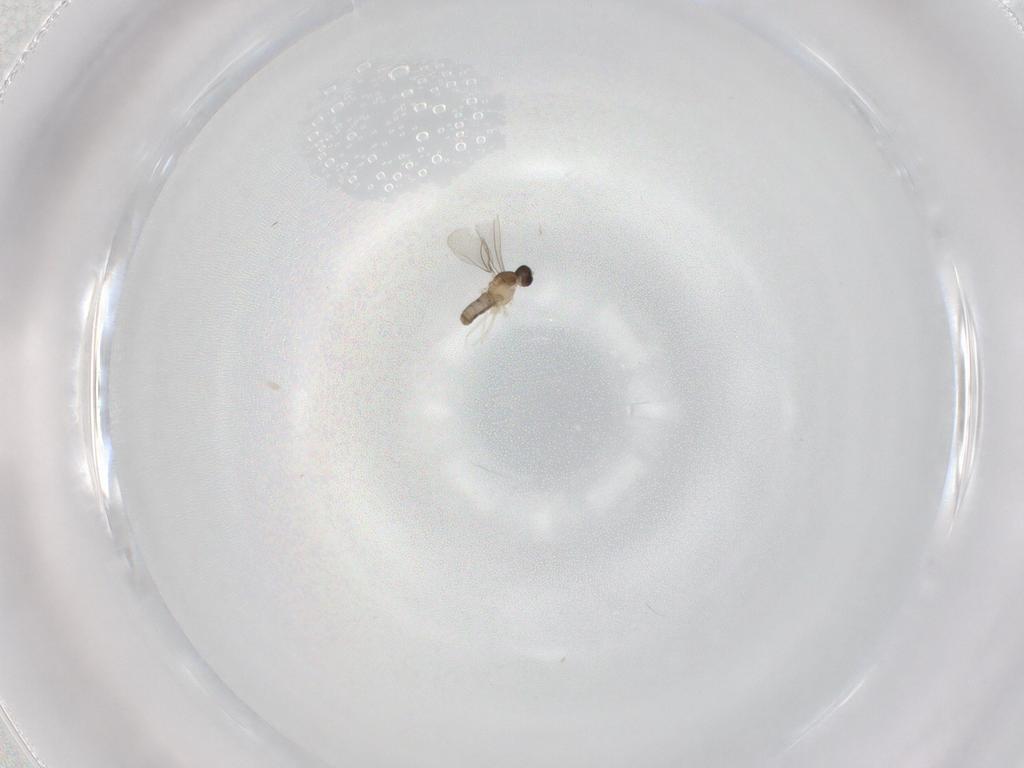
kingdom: Animalia
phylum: Arthropoda
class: Insecta
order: Diptera
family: Cecidomyiidae
